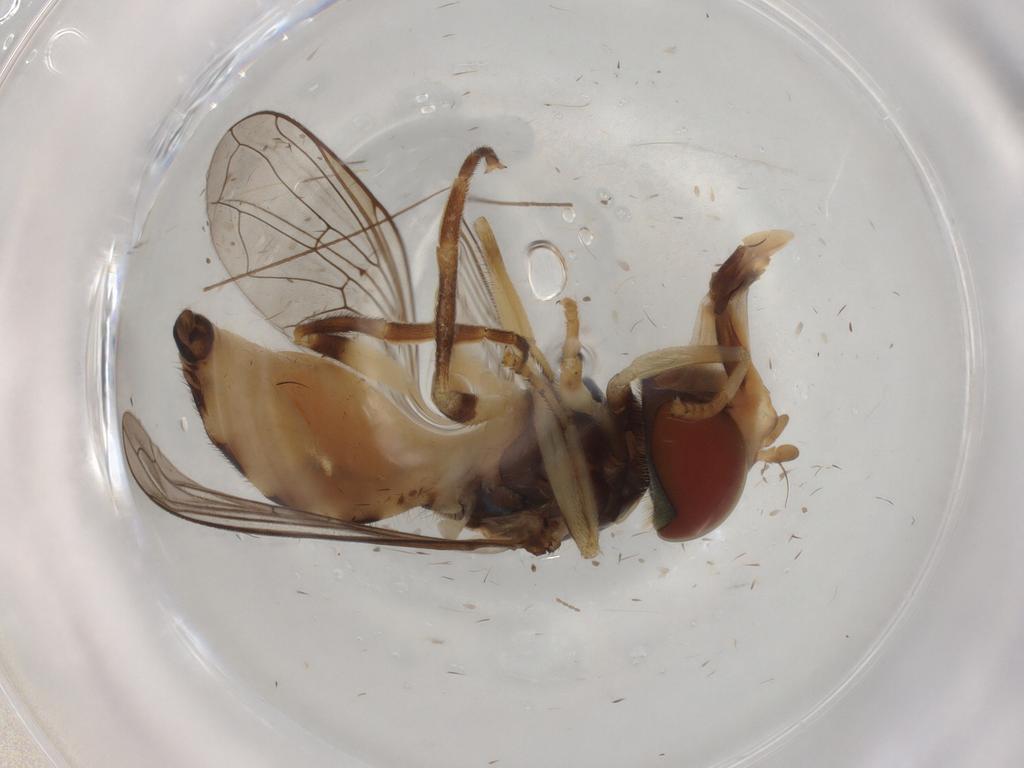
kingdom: Animalia
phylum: Arthropoda
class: Insecta
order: Diptera
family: Syrphidae
